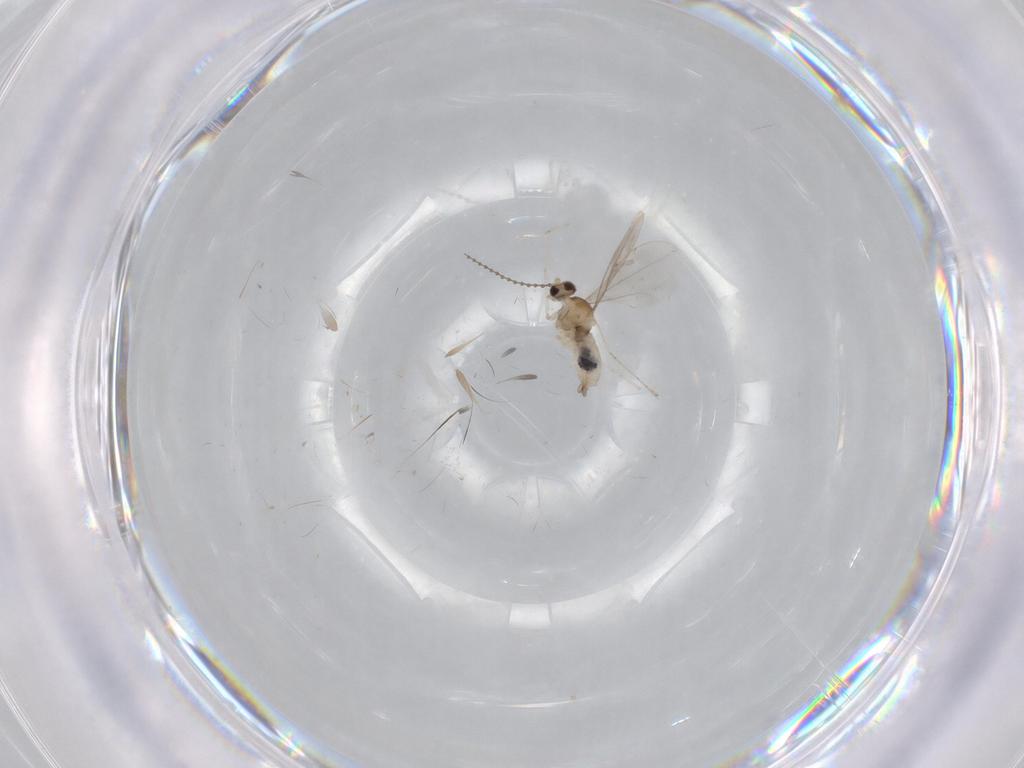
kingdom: Animalia
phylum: Arthropoda
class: Insecta
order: Diptera
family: Cecidomyiidae
